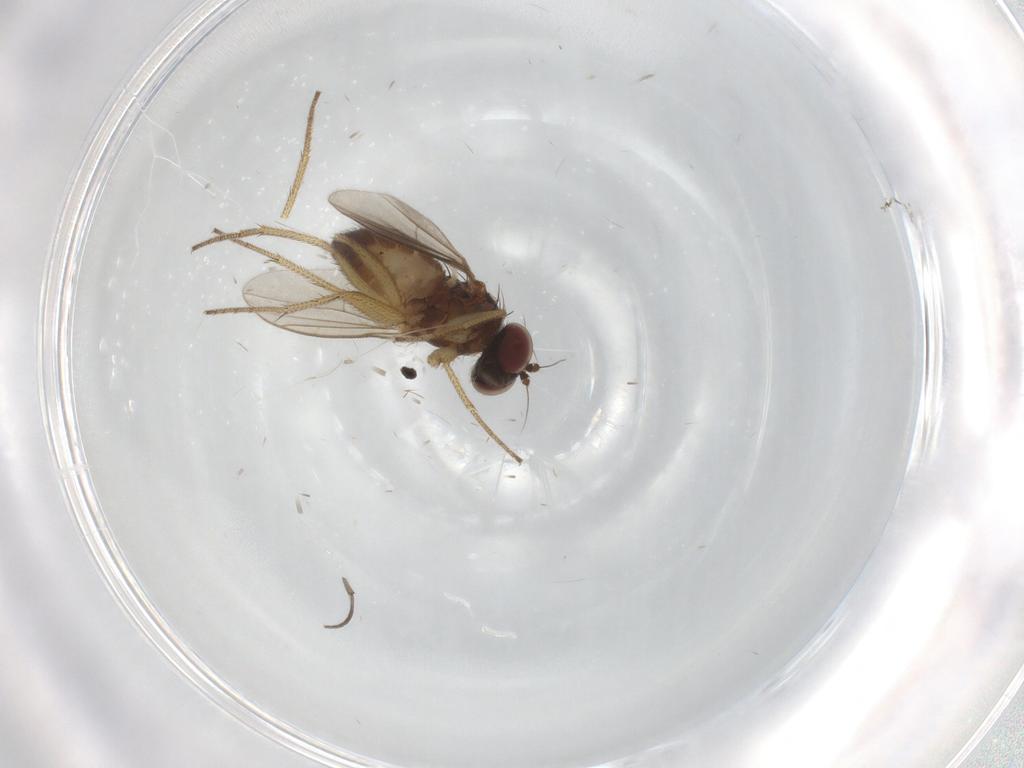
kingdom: Animalia
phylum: Arthropoda
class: Insecta
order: Diptera
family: Dolichopodidae
